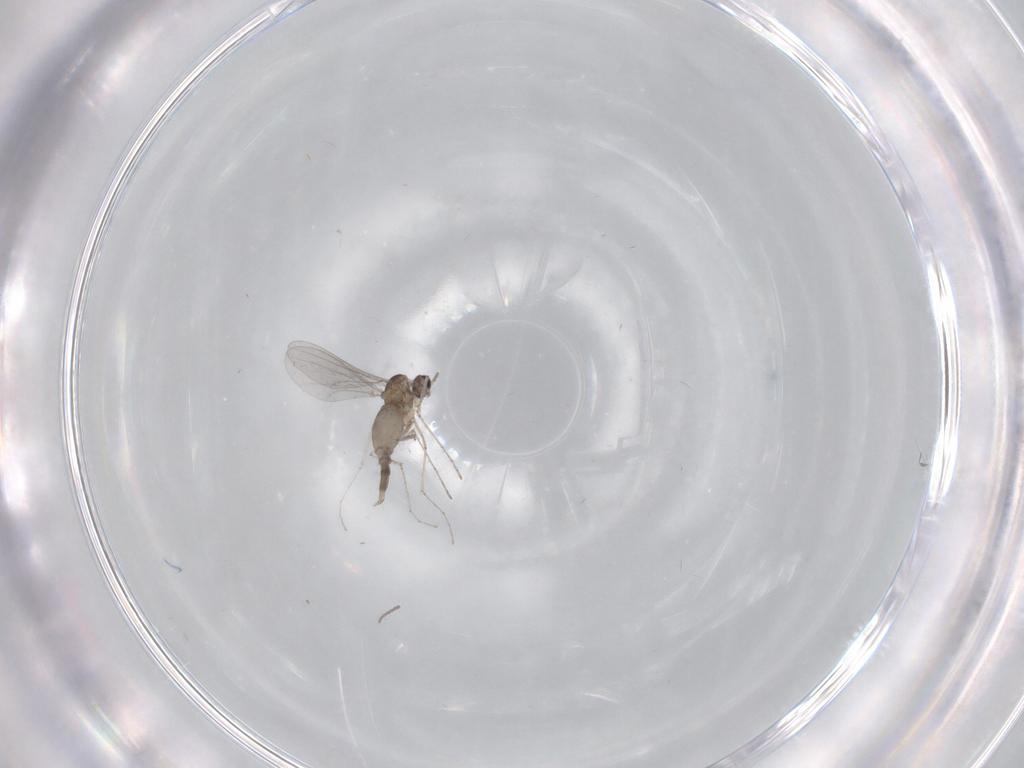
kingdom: Animalia
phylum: Arthropoda
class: Insecta
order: Diptera
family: Cecidomyiidae
